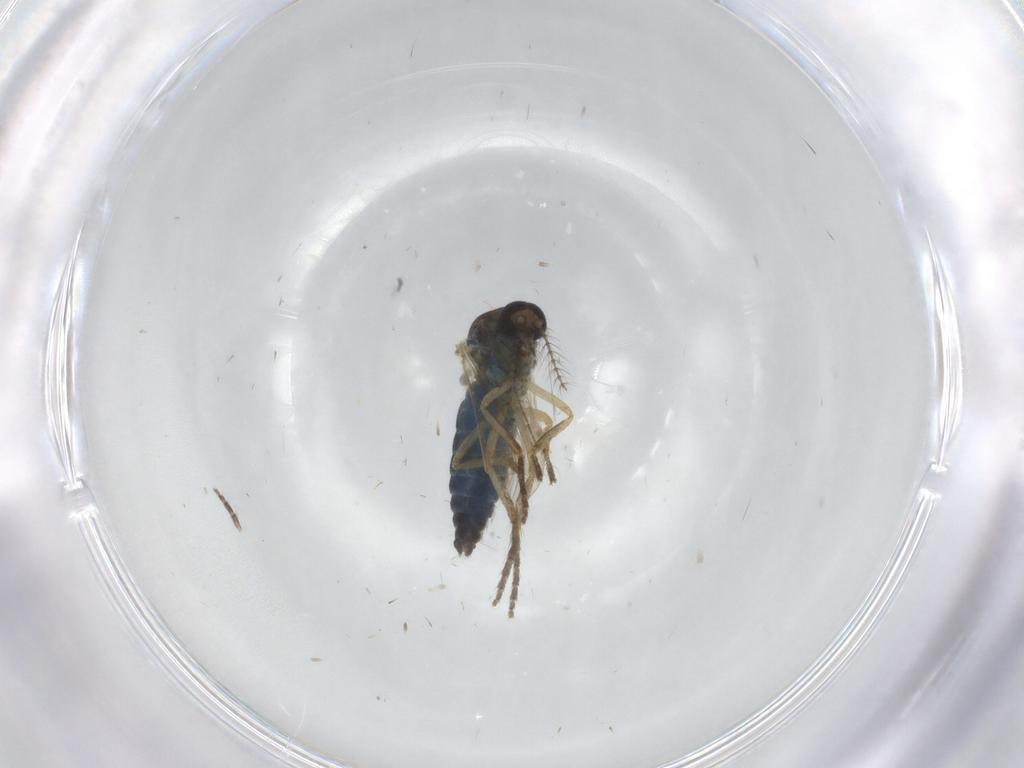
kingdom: Animalia
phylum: Arthropoda
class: Insecta
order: Diptera
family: Ceratopogonidae
